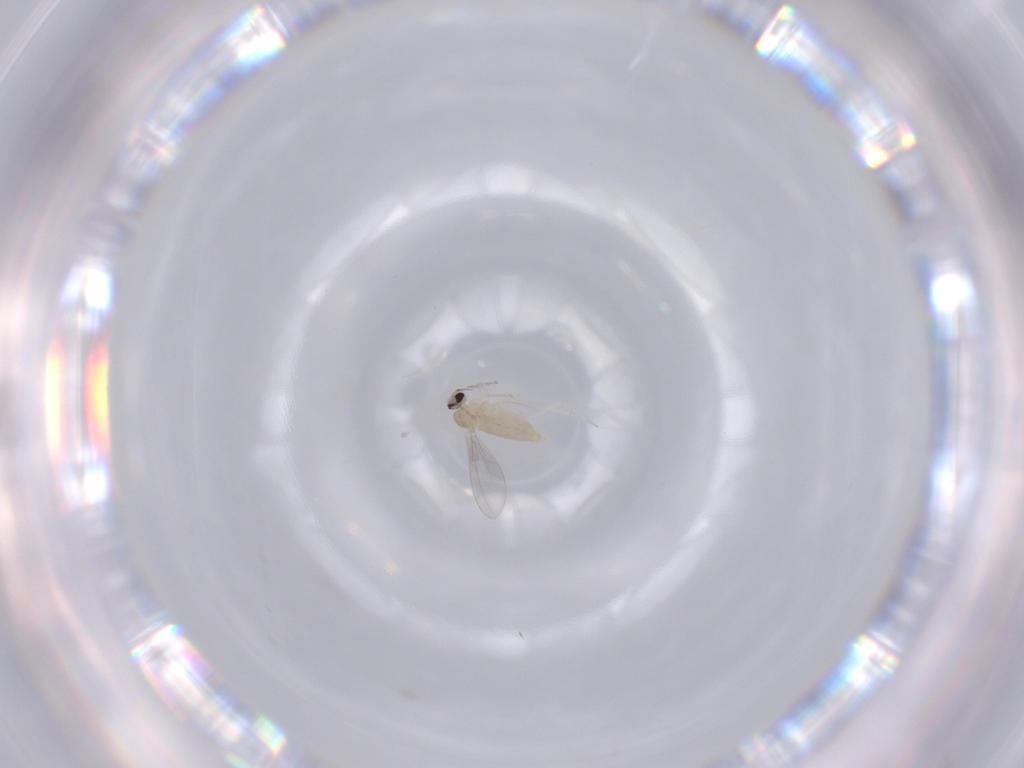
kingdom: Animalia
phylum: Arthropoda
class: Insecta
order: Diptera
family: Cecidomyiidae
